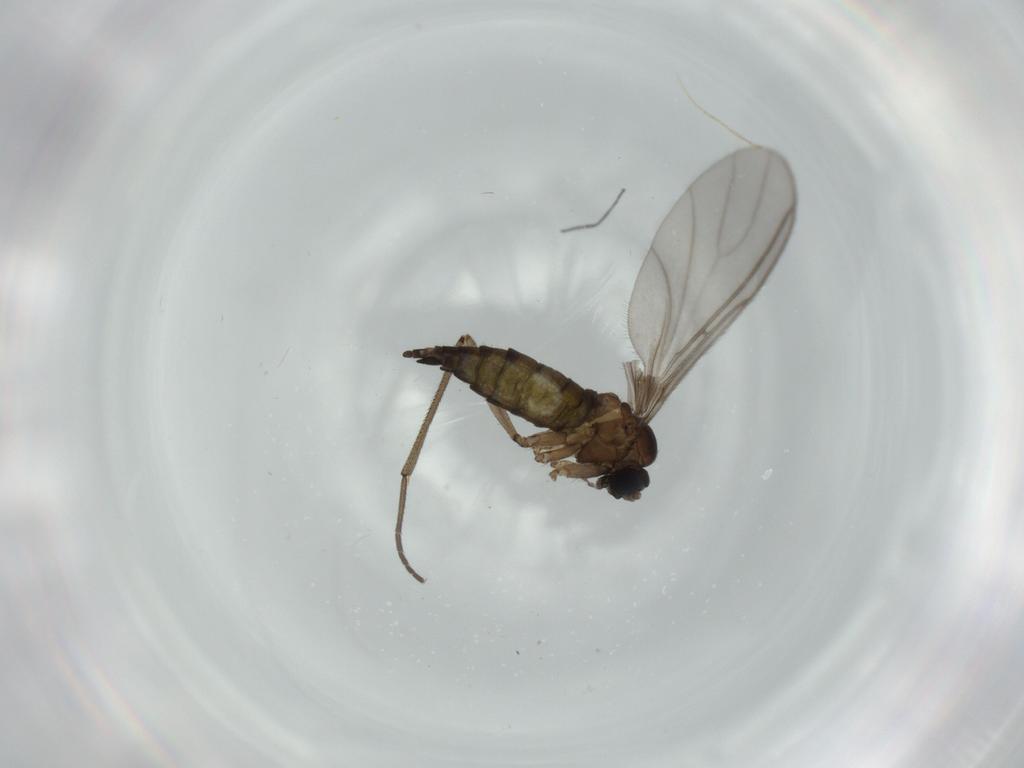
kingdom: Animalia
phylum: Arthropoda
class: Insecta
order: Diptera
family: Sciaridae
